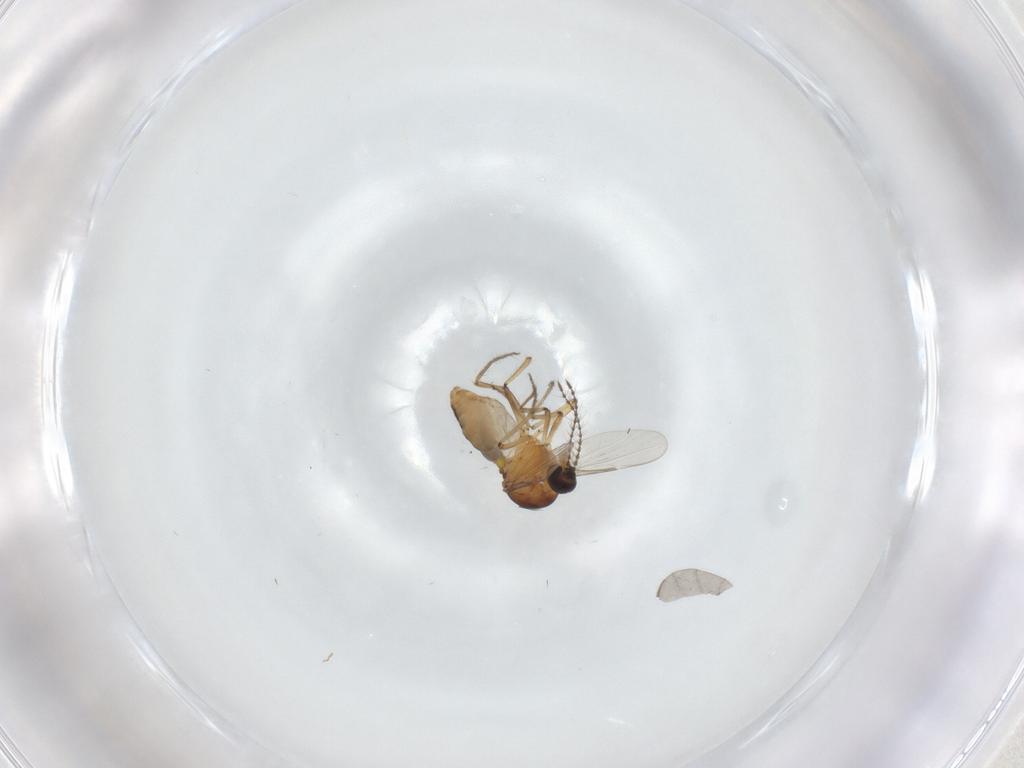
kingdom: Animalia
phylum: Arthropoda
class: Insecta
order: Diptera
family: Ceratopogonidae
